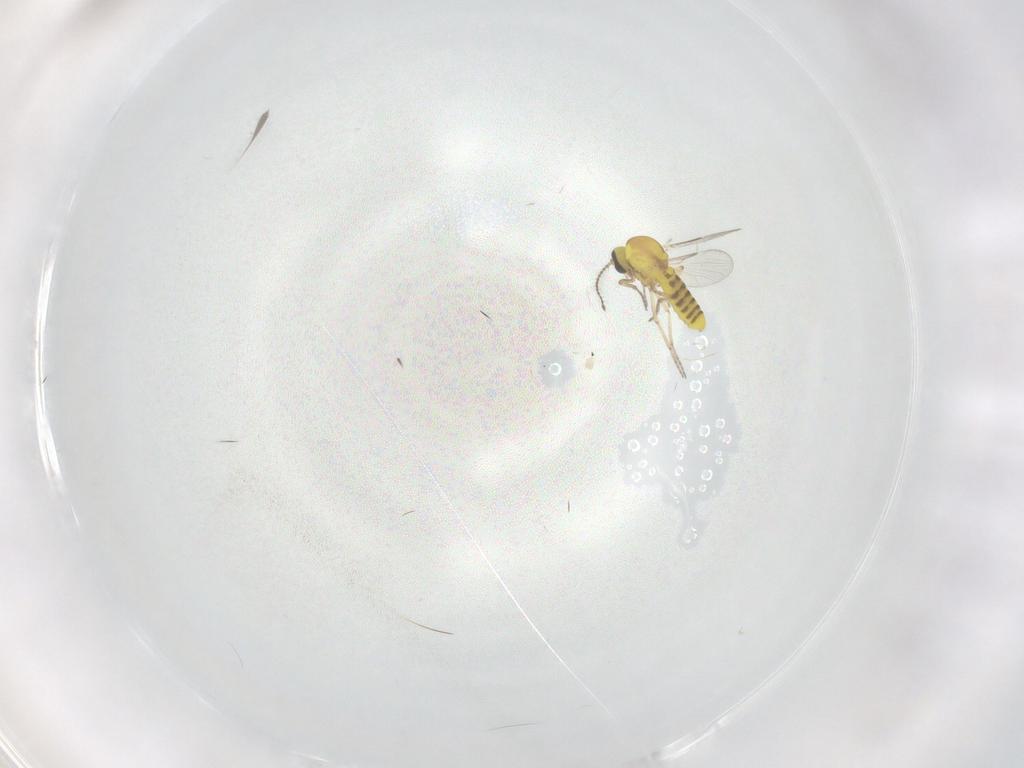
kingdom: Animalia
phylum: Arthropoda
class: Insecta
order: Diptera
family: Ceratopogonidae
